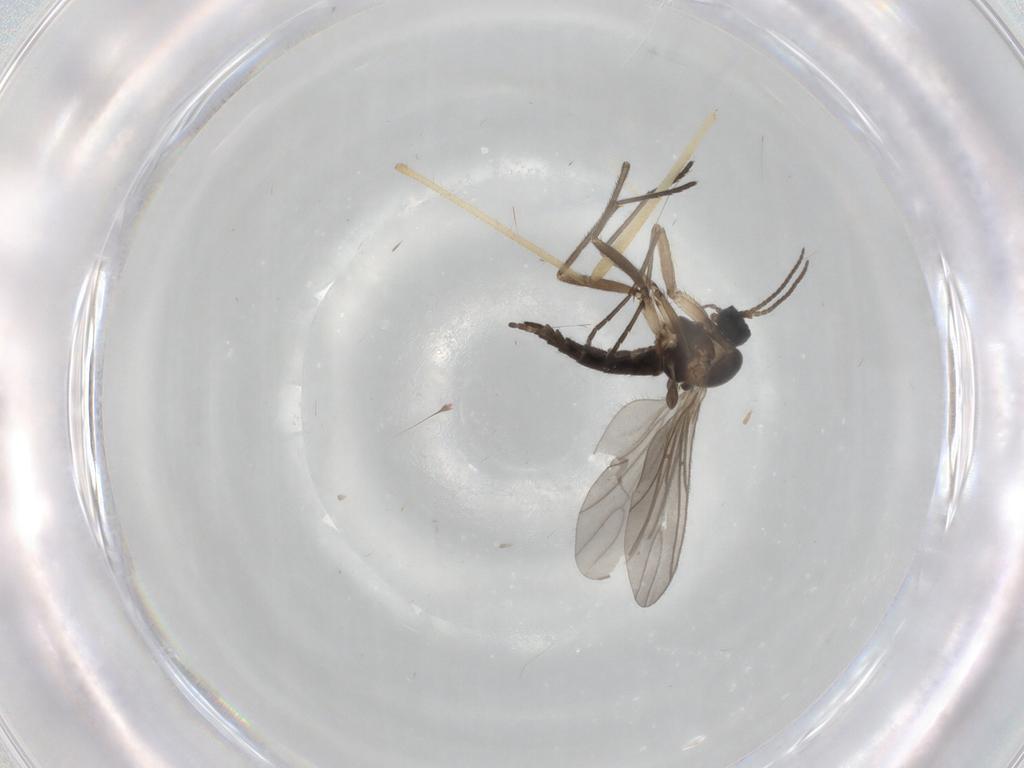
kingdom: Animalia
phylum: Arthropoda
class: Insecta
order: Diptera
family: Sciaridae
